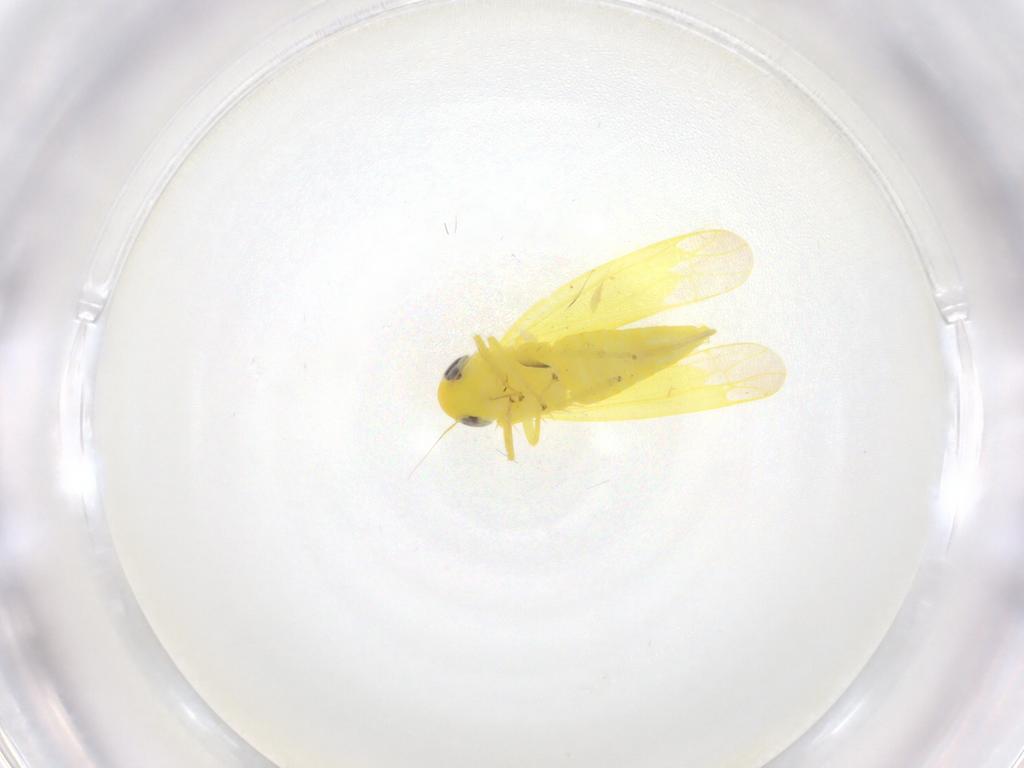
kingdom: Animalia
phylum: Arthropoda
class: Insecta
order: Hemiptera
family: Cicadellidae
